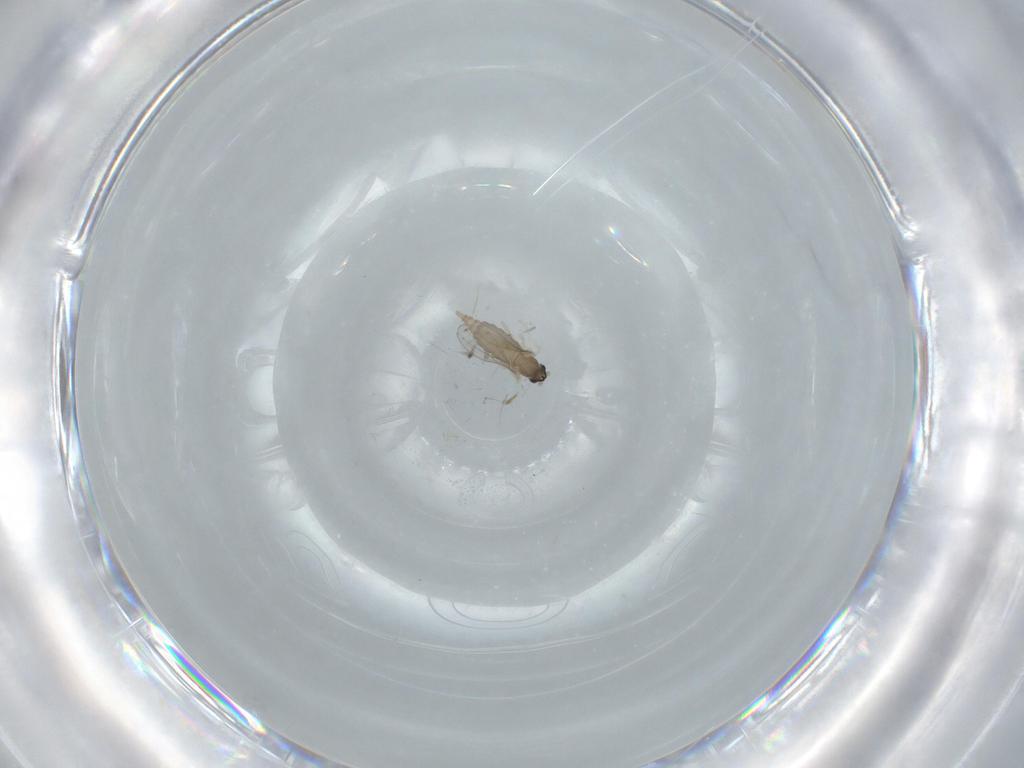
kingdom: Animalia
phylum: Arthropoda
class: Insecta
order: Diptera
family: Cecidomyiidae
